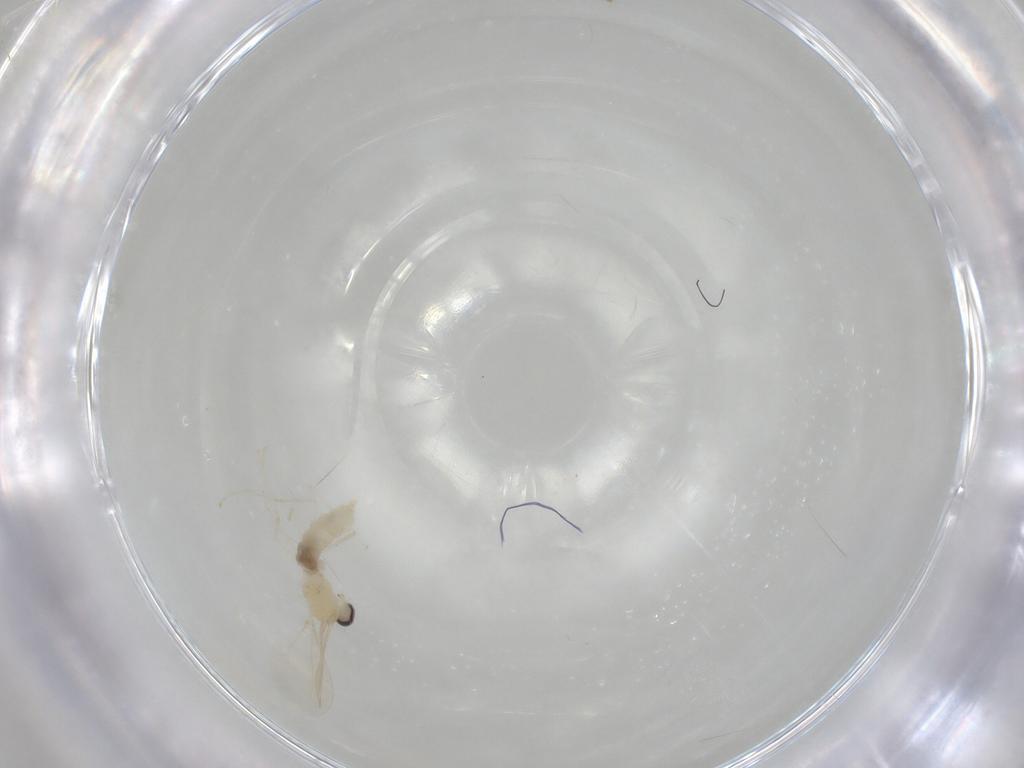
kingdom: Animalia
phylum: Arthropoda
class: Insecta
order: Diptera
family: Cecidomyiidae
